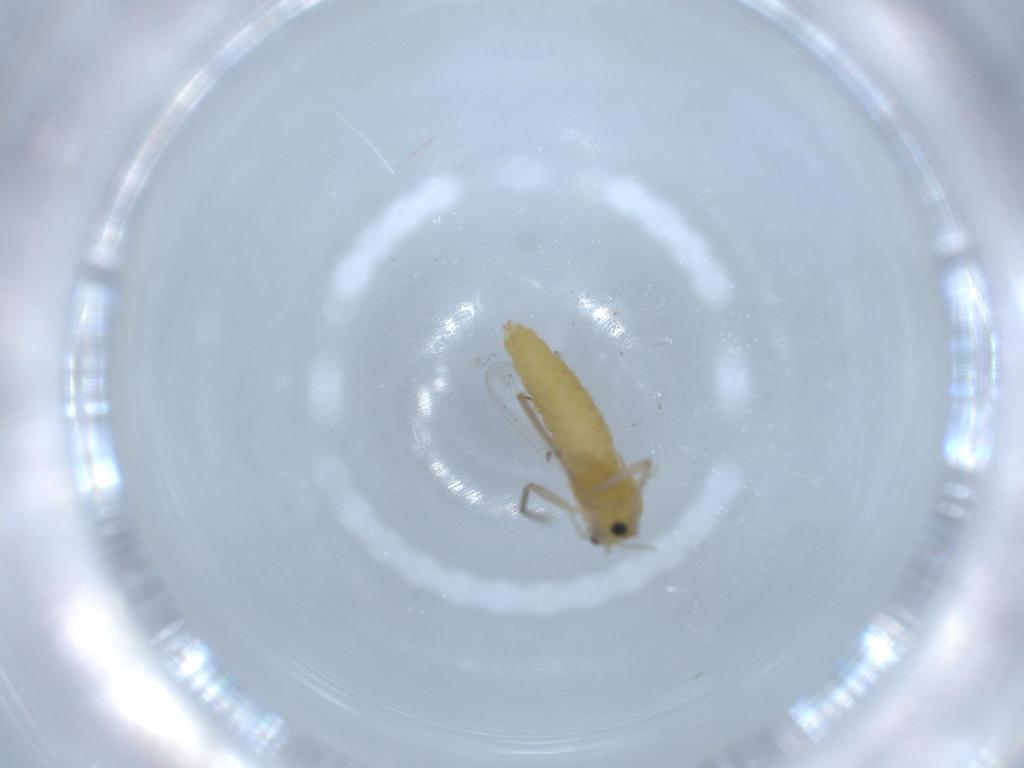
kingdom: Animalia
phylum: Arthropoda
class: Insecta
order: Diptera
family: Chironomidae
